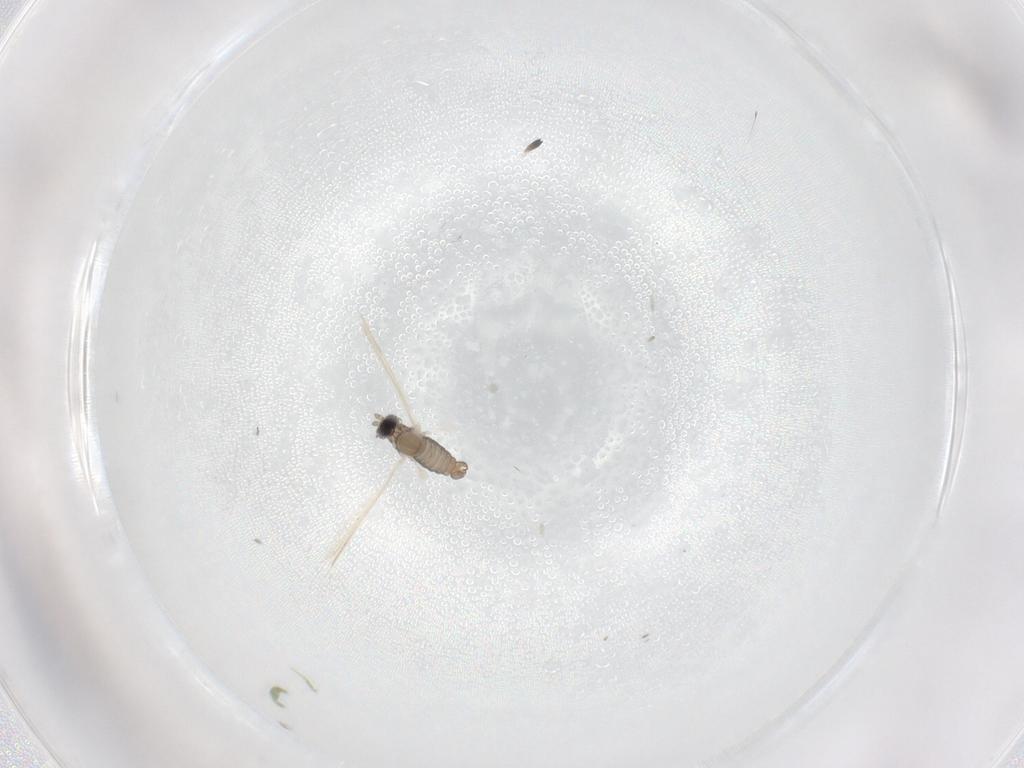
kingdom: Animalia
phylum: Arthropoda
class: Insecta
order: Diptera
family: Cecidomyiidae
